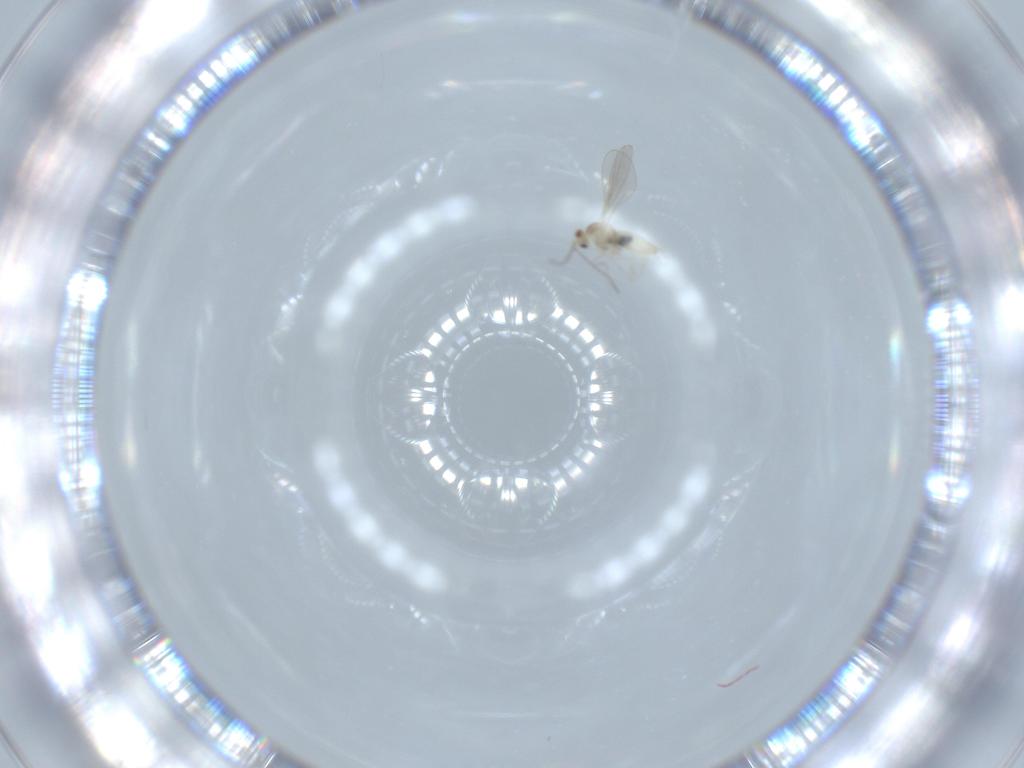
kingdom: Animalia
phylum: Arthropoda
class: Insecta
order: Diptera
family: Cecidomyiidae
